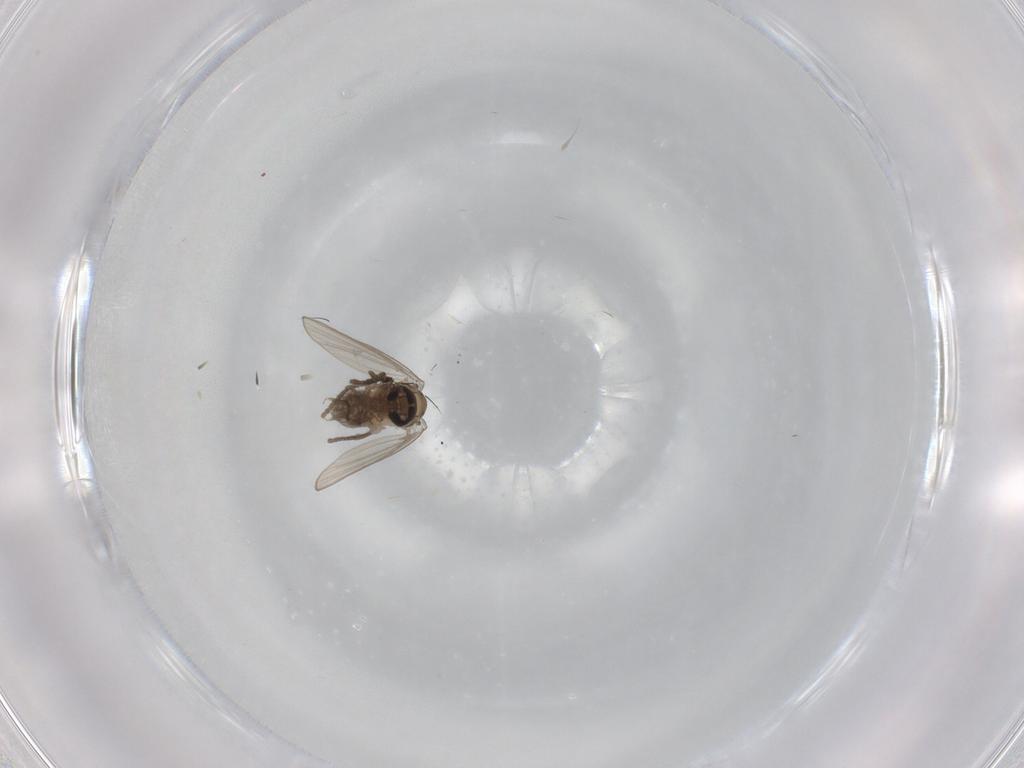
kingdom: Animalia
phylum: Arthropoda
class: Insecta
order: Diptera
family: Psychodidae
